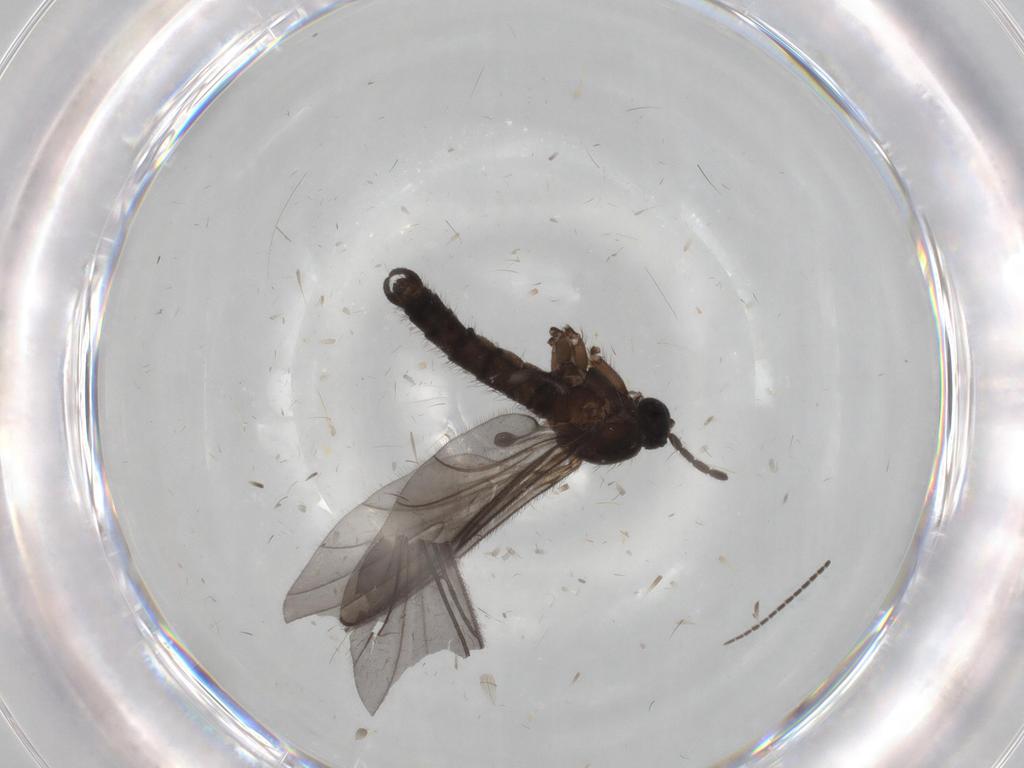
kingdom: Animalia
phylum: Arthropoda
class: Insecta
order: Diptera
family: Sciaridae
